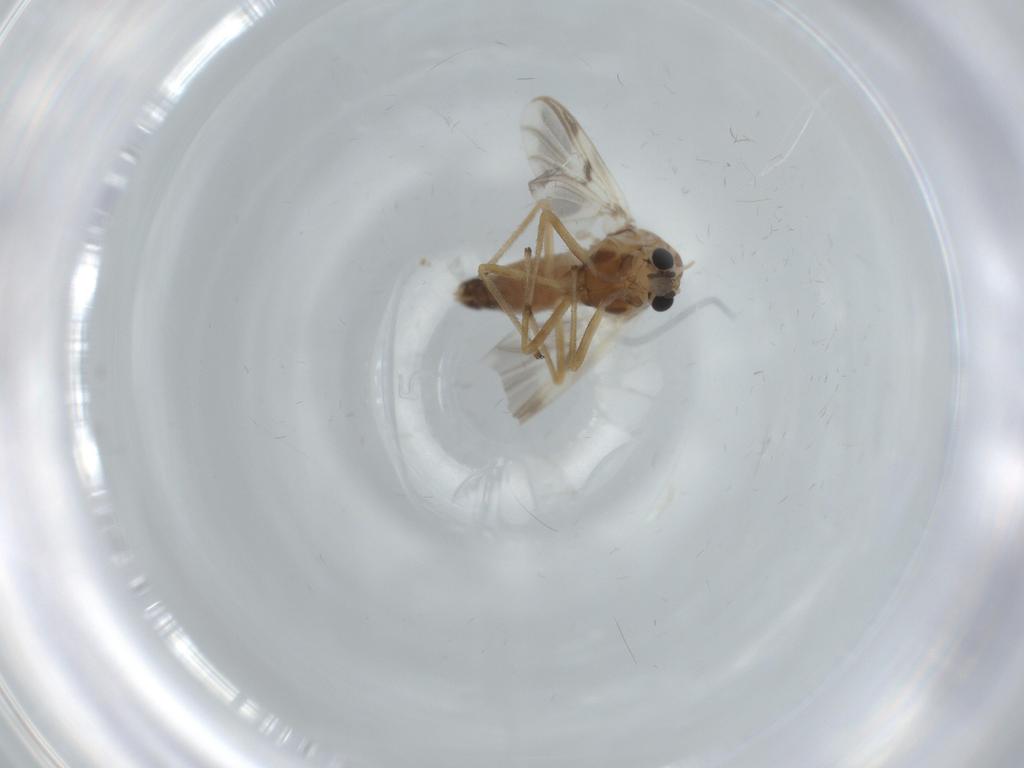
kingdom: Animalia
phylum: Arthropoda
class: Insecta
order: Diptera
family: Chironomidae
